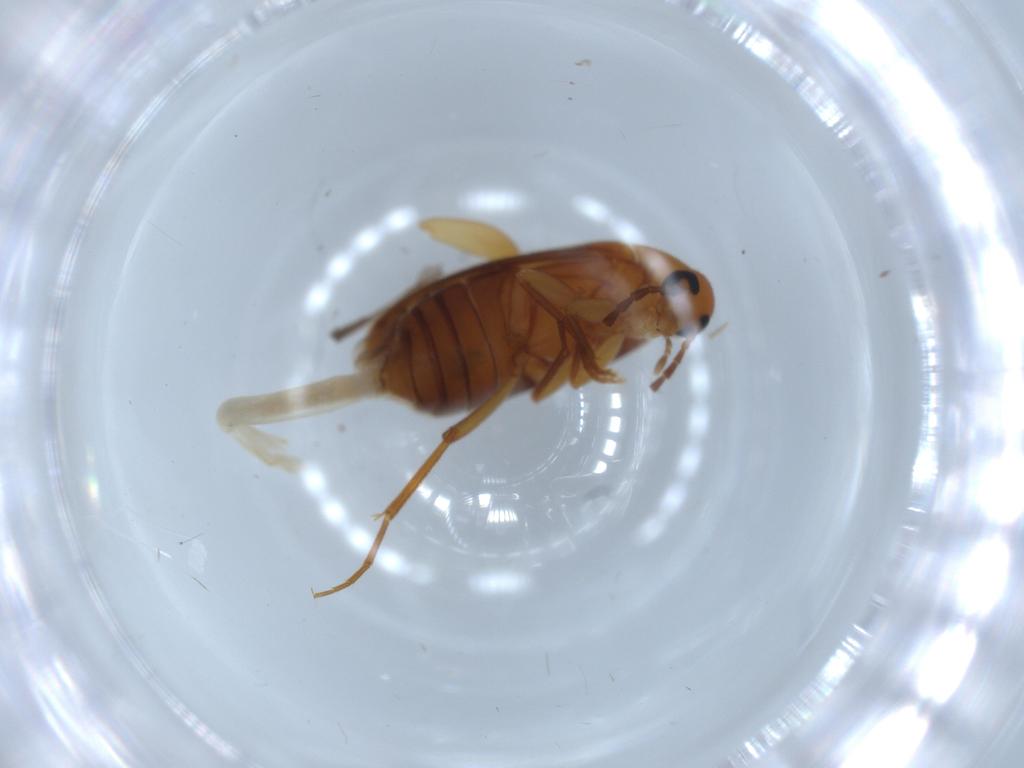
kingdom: Animalia
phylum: Arthropoda
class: Insecta
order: Coleoptera
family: Scraptiidae
